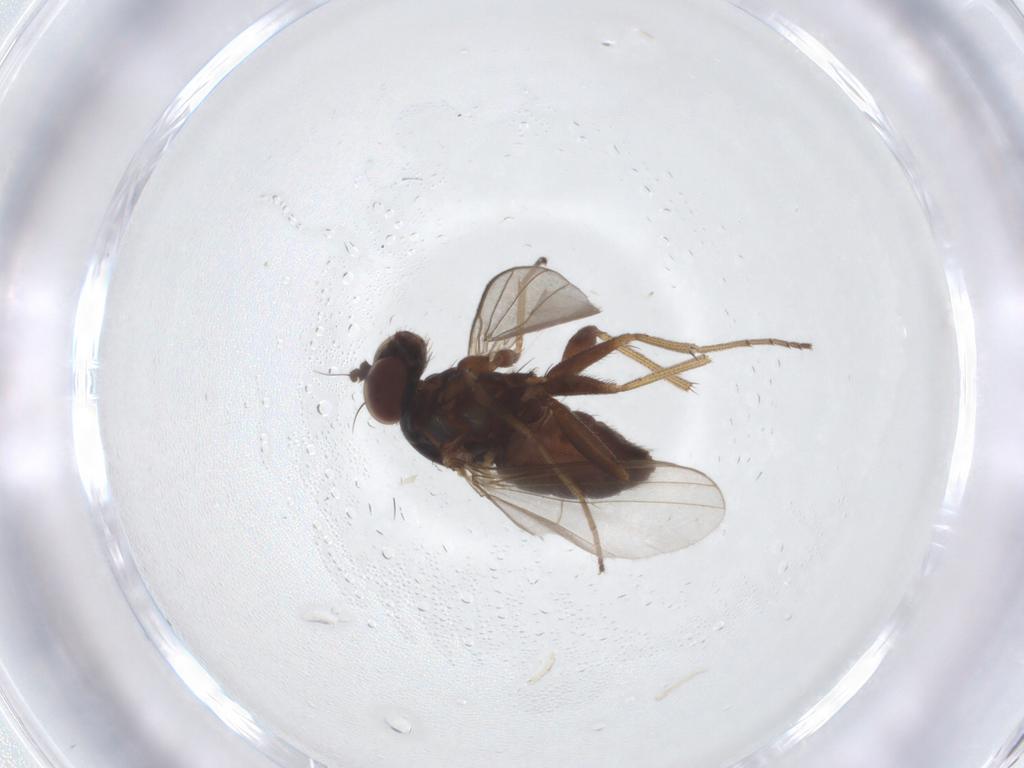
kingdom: Animalia
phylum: Arthropoda
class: Insecta
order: Diptera
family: Dolichopodidae
